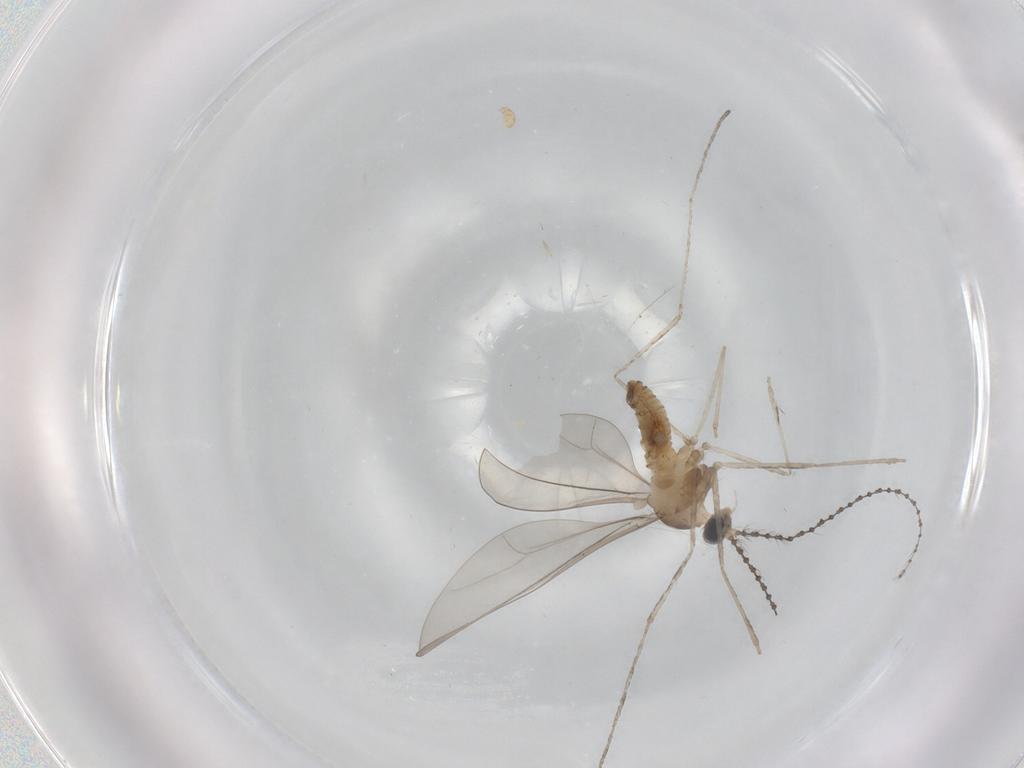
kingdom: Animalia
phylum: Arthropoda
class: Insecta
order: Diptera
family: Cecidomyiidae
